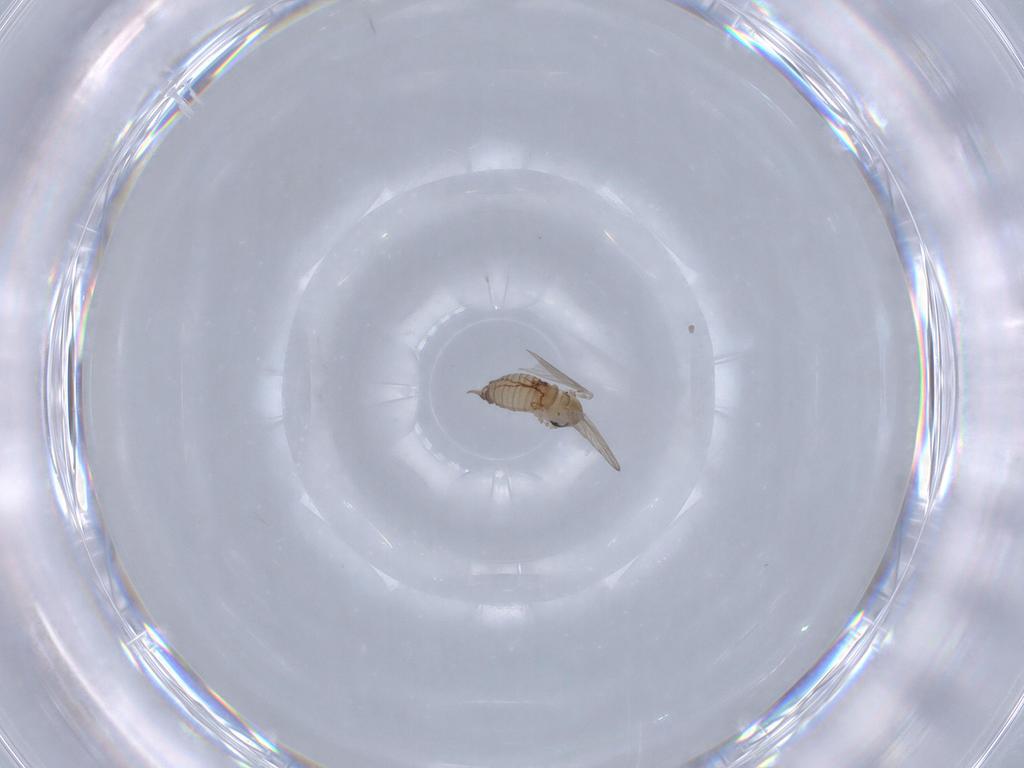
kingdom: Animalia
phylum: Arthropoda
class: Insecta
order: Diptera
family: Psychodidae
